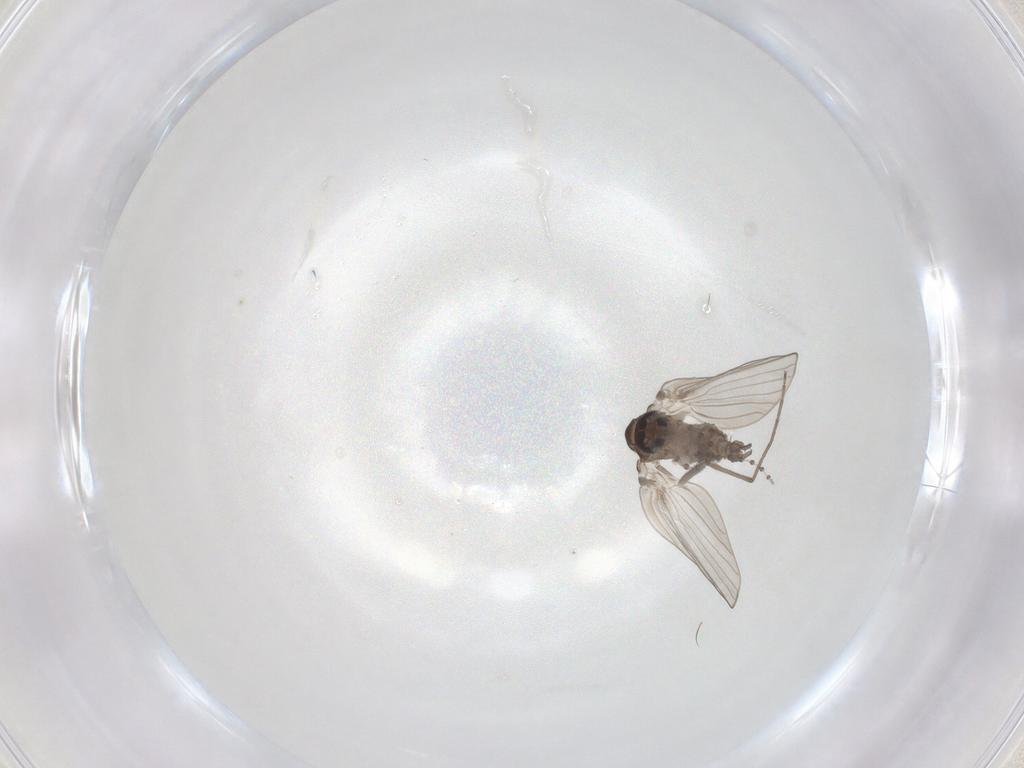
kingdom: Animalia
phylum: Arthropoda
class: Insecta
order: Diptera
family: Psychodidae
